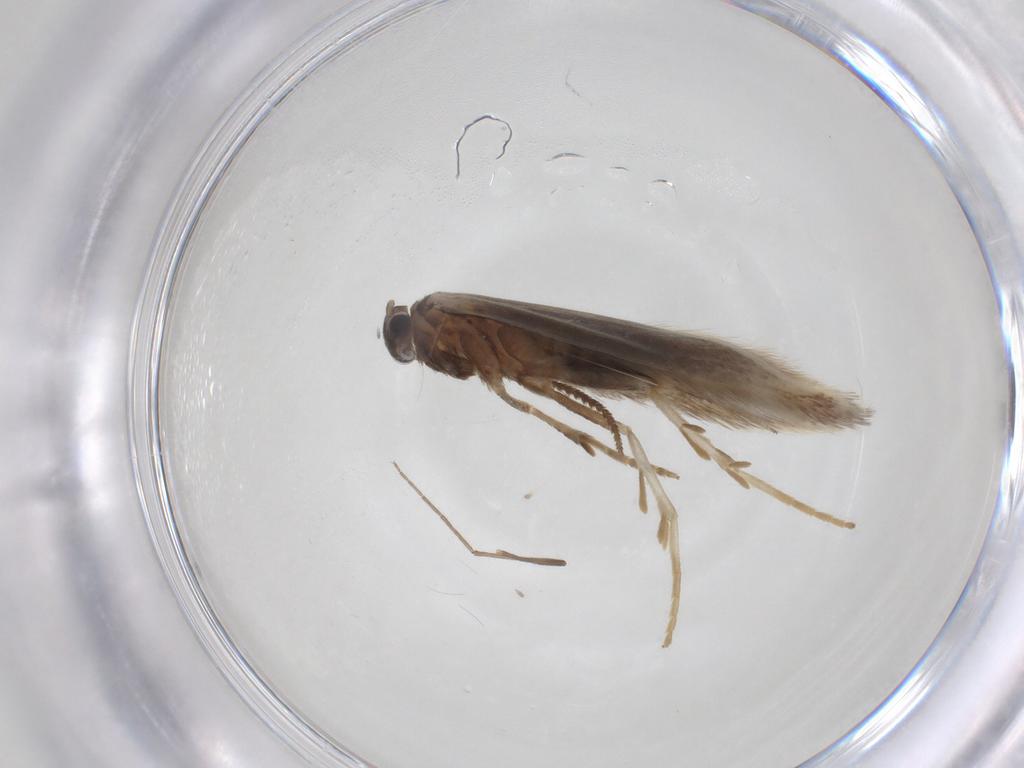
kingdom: Animalia
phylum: Arthropoda
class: Insecta
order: Lepidoptera
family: Elachistidae
